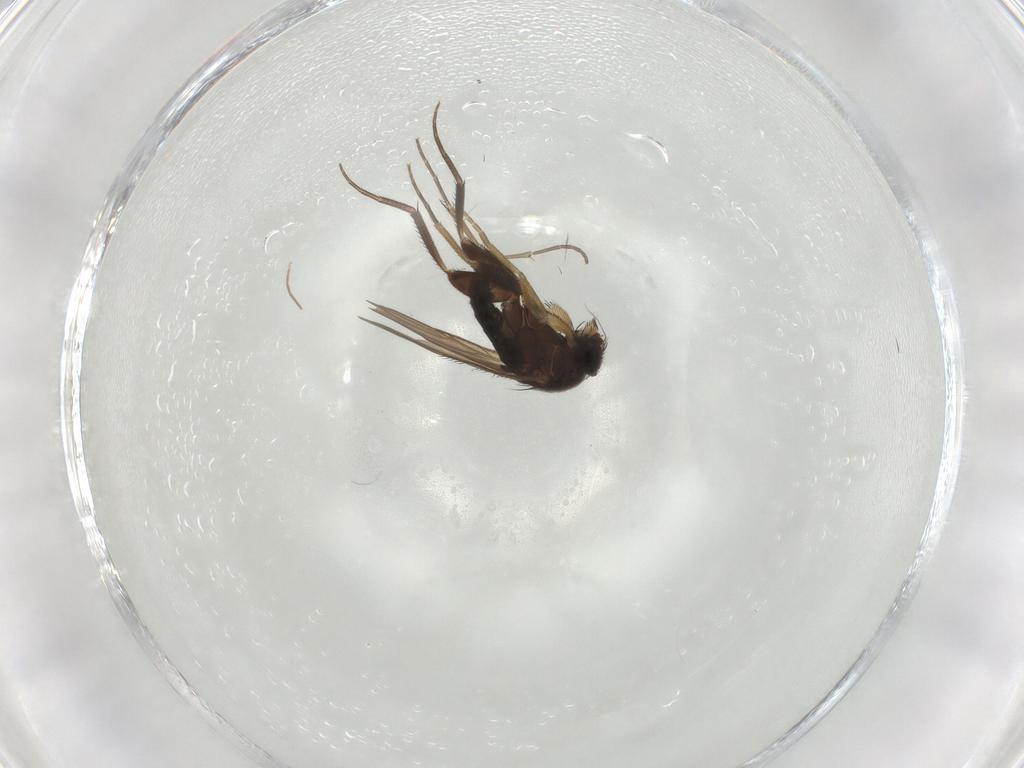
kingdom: Animalia
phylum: Arthropoda
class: Insecta
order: Diptera
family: Phoridae
